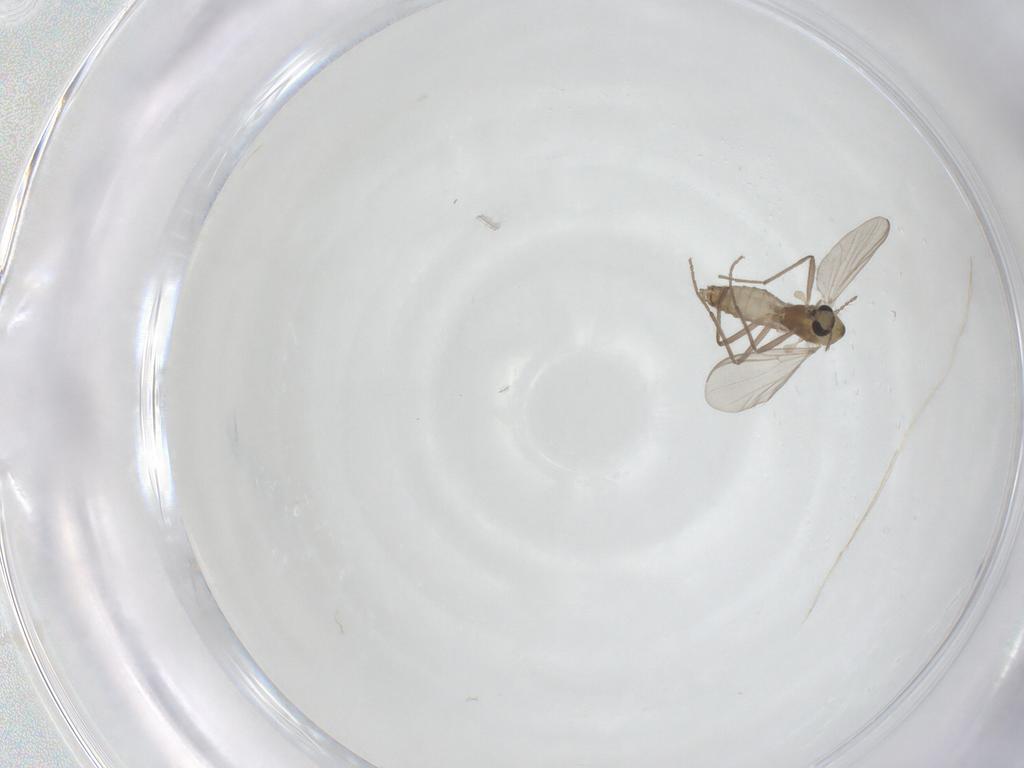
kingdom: Animalia
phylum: Arthropoda
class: Insecta
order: Diptera
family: Chironomidae
